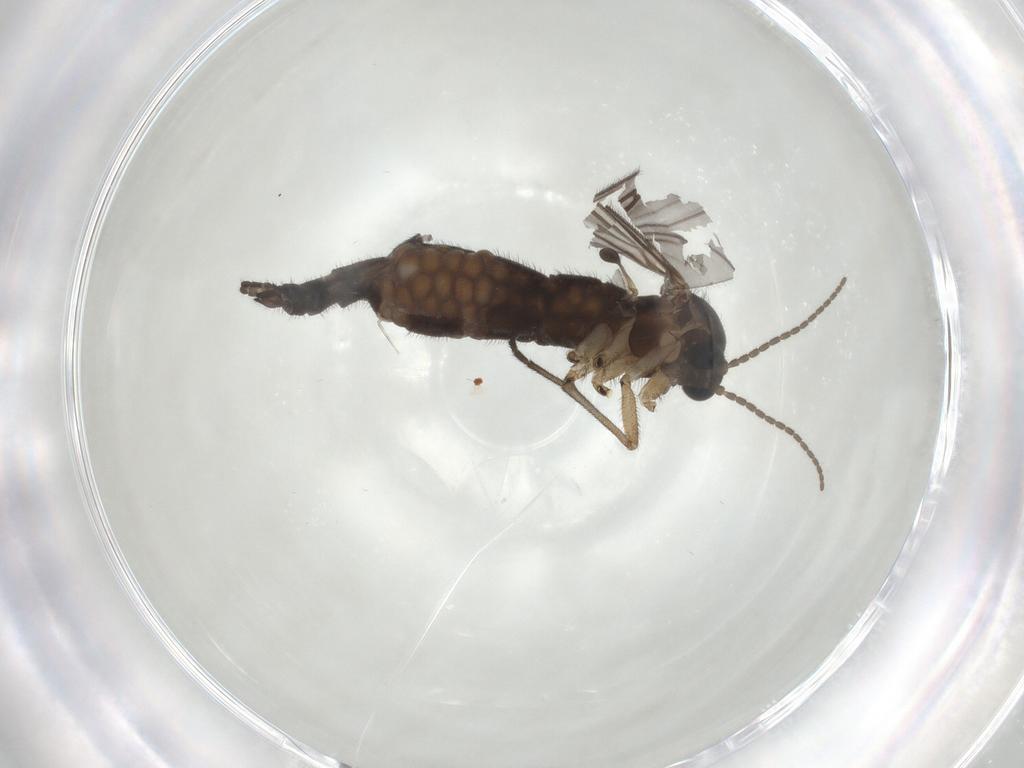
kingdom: Animalia
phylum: Arthropoda
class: Insecta
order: Diptera
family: Sciaridae
